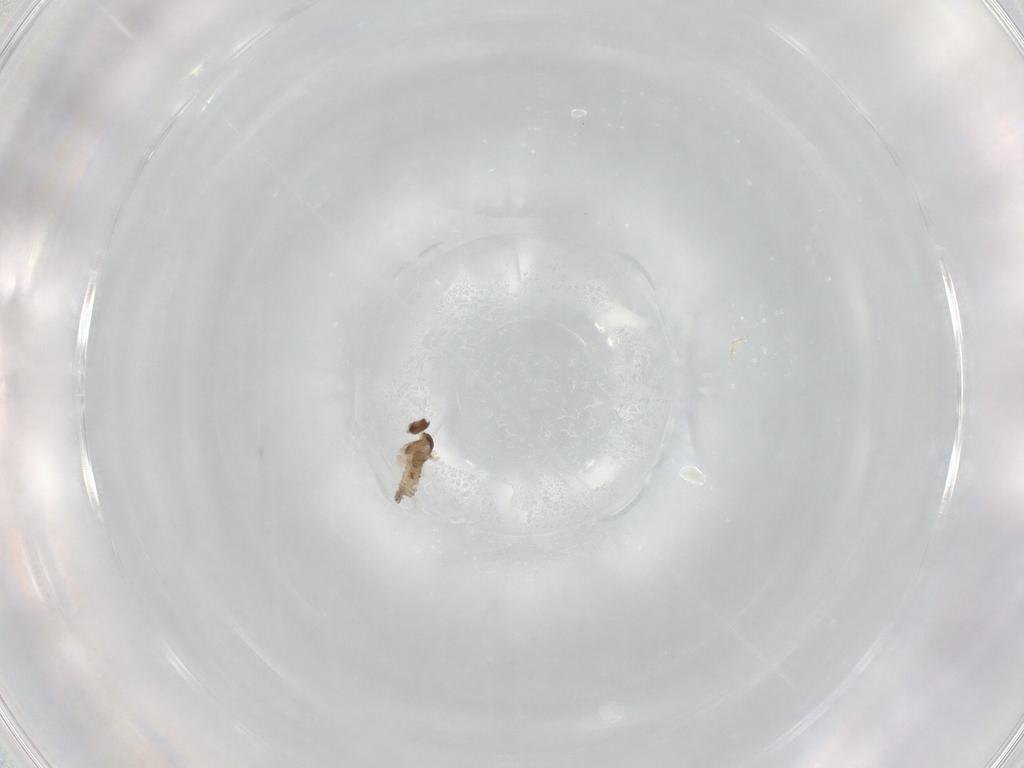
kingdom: Animalia
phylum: Arthropoda
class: Insecta
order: Diptera
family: Cecidomyiidae
